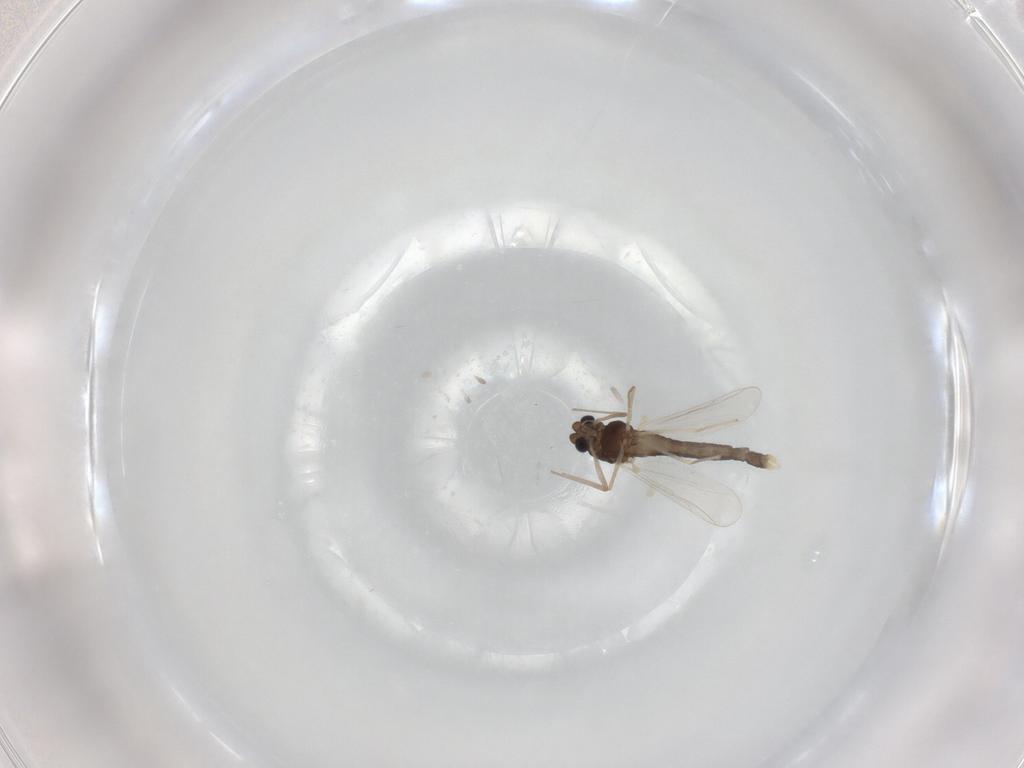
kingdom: Animalia
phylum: Arthropoda
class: Insecta
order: Diptera
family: Chironomidae
